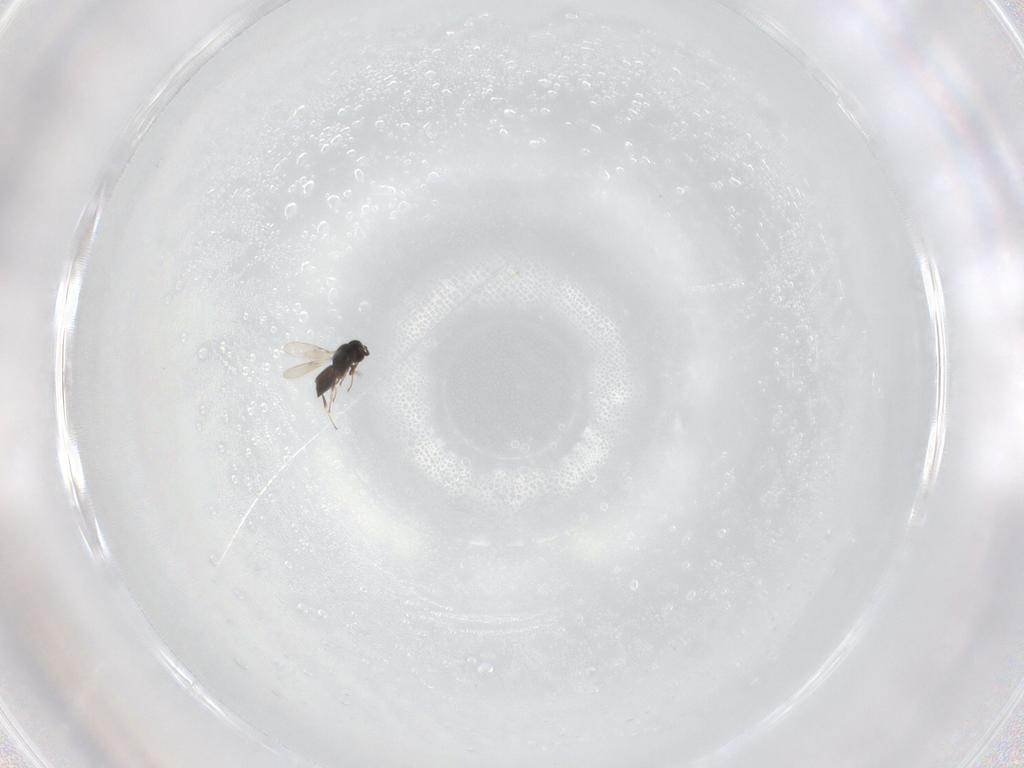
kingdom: Animalia
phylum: Arthropoda
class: Insecta
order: Hymenoptera
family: Scelionidae
